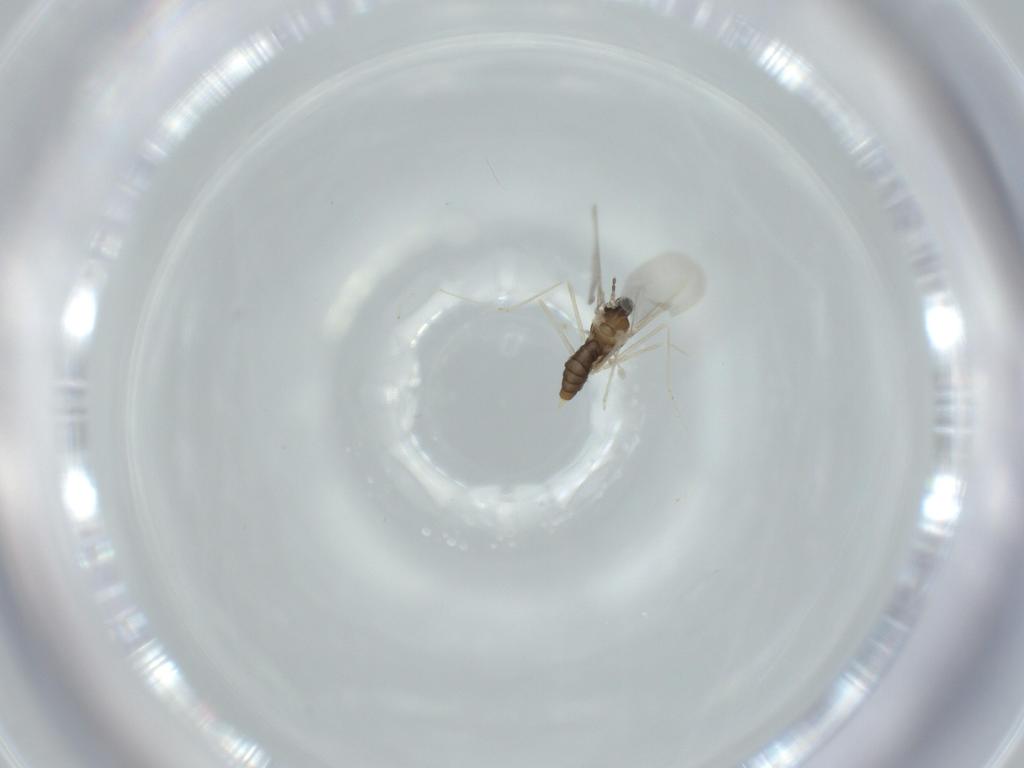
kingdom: Animalia
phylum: Arthropoda
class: Insecta
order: Diptera
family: Cecidomyiidae
